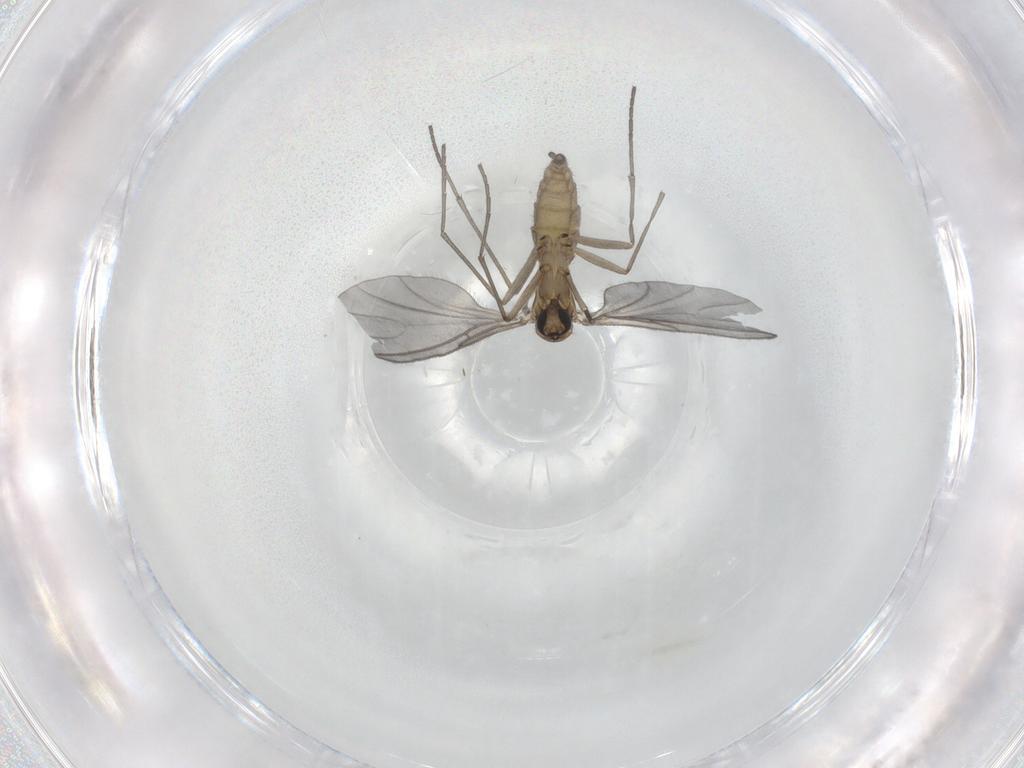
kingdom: Animalia
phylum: Arthropoda
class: Insecta
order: Diptera
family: Sciaridae
